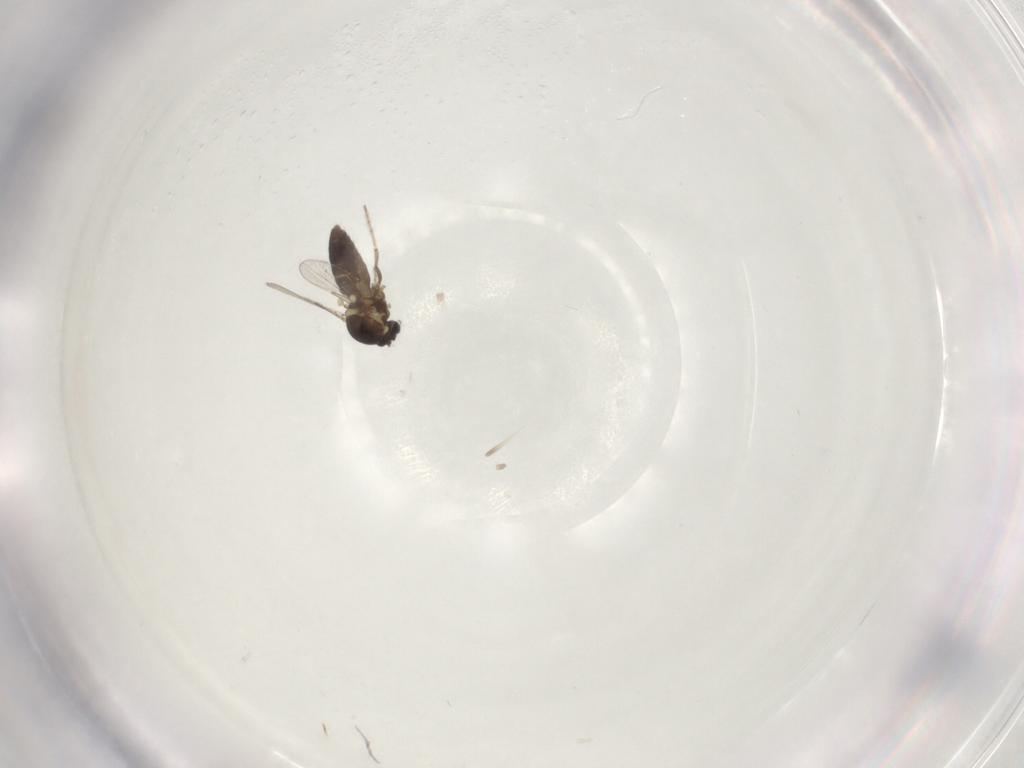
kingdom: Animalia
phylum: Arthropoda
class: Insecta
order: Diptera
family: Ceratopogonidae
